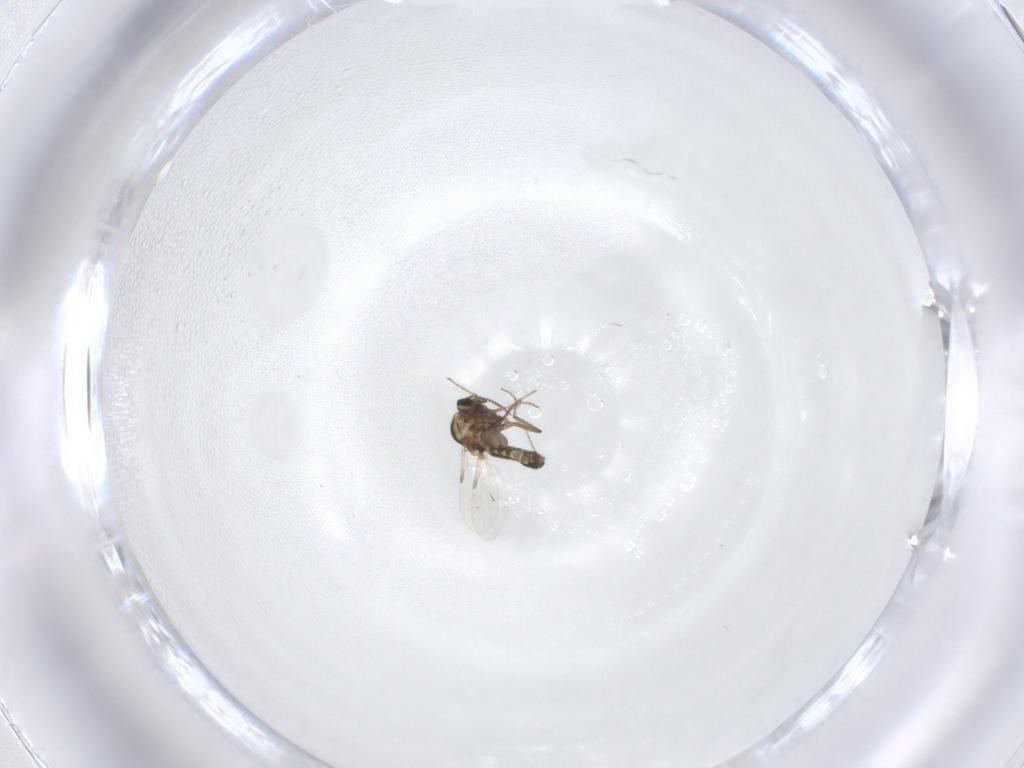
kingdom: Animalia
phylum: Arthropoda
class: Insecta
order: Diptera
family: Ceratopogonidae
